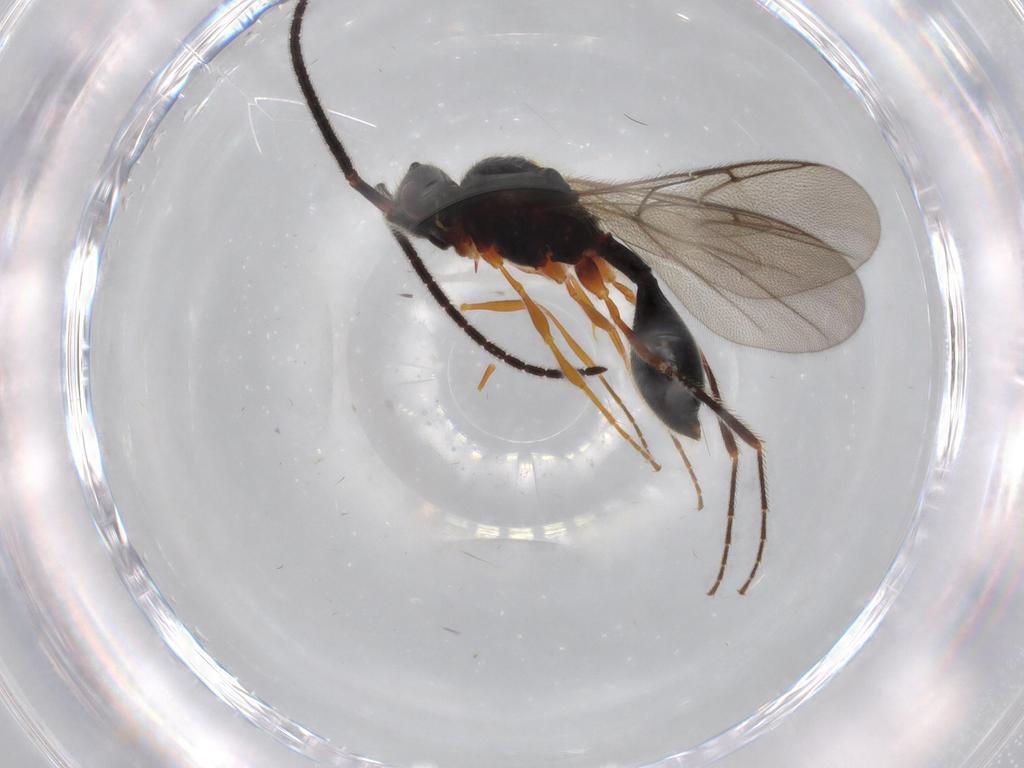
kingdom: Animalia
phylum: Arthropoda
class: Insecta
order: Hymenoptera
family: Diapriidae
